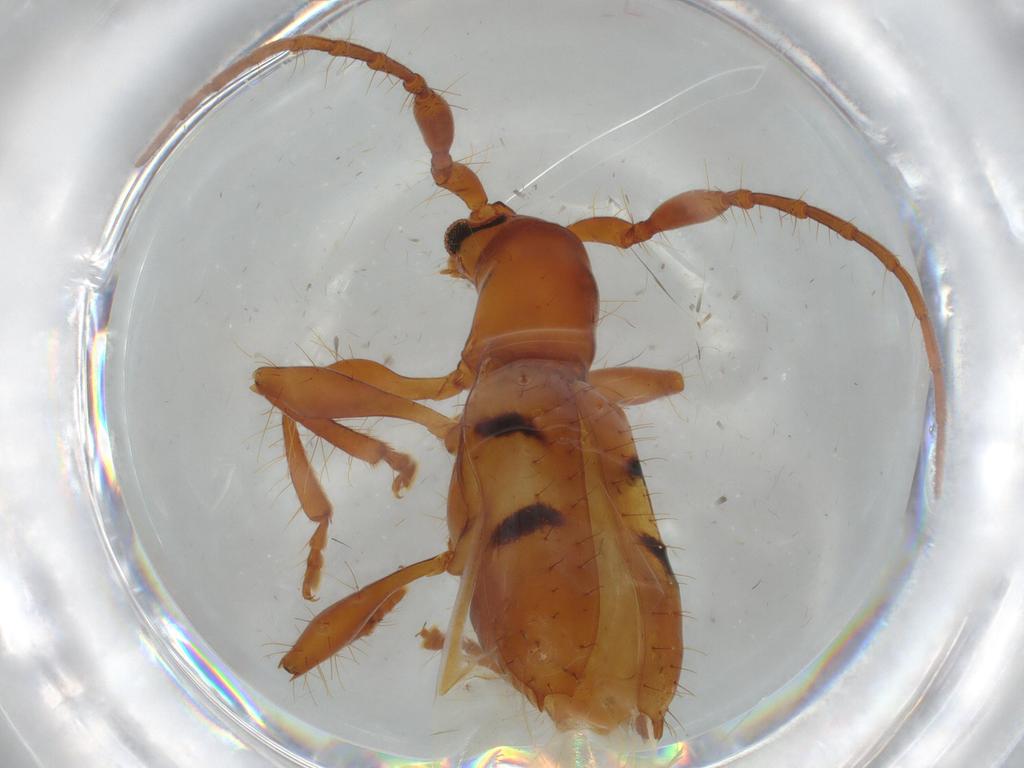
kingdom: Animalia
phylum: Arthropoda
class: Insecta
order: Coleoptera
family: Cerambycidae
